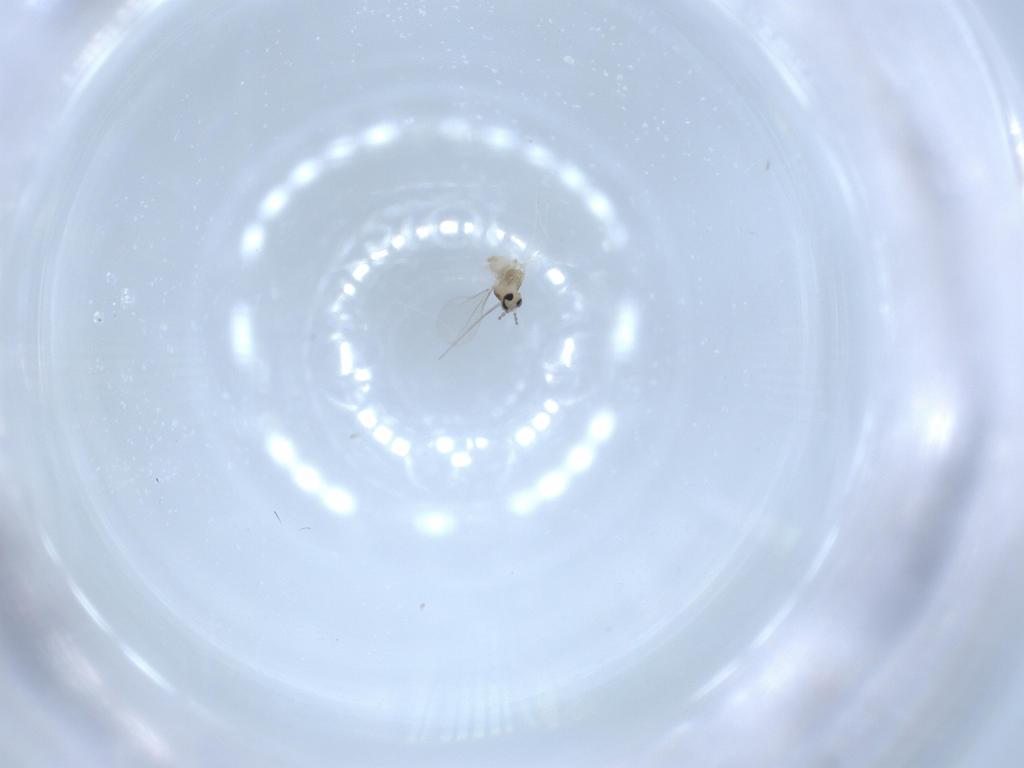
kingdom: Animalia
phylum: Arthropoda
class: Insecta
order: Diptera
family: Cecidomyiidae
